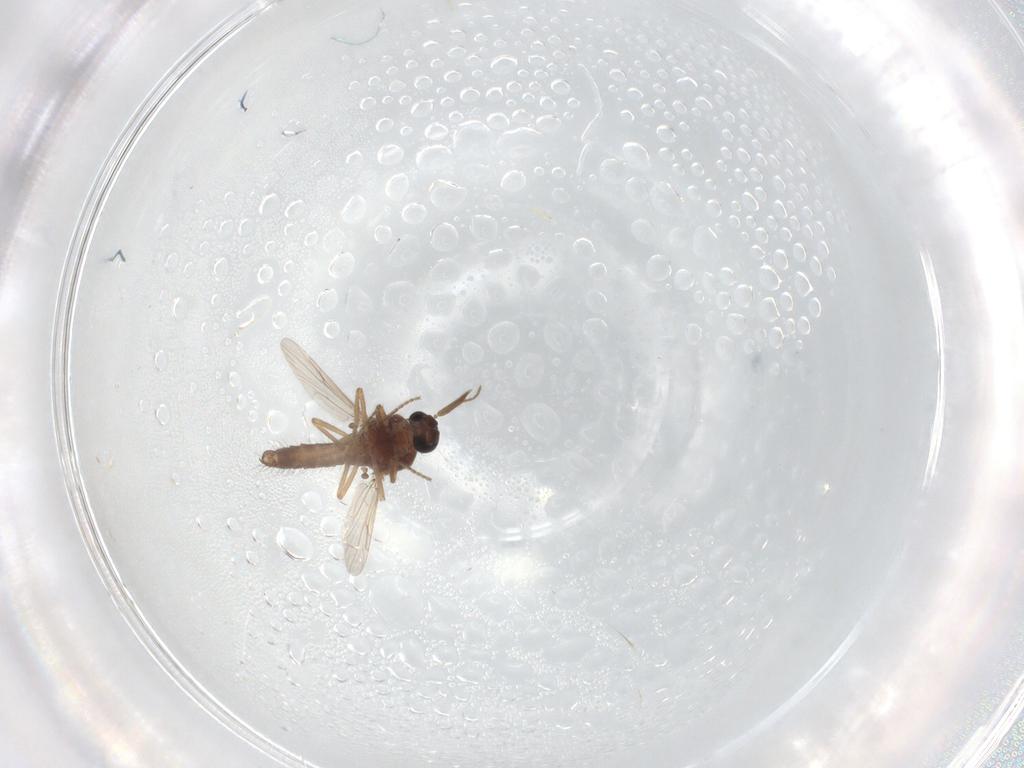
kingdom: Animalia
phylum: Arthropoda
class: Insecta
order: Diptera
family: Ceratopogonidae
